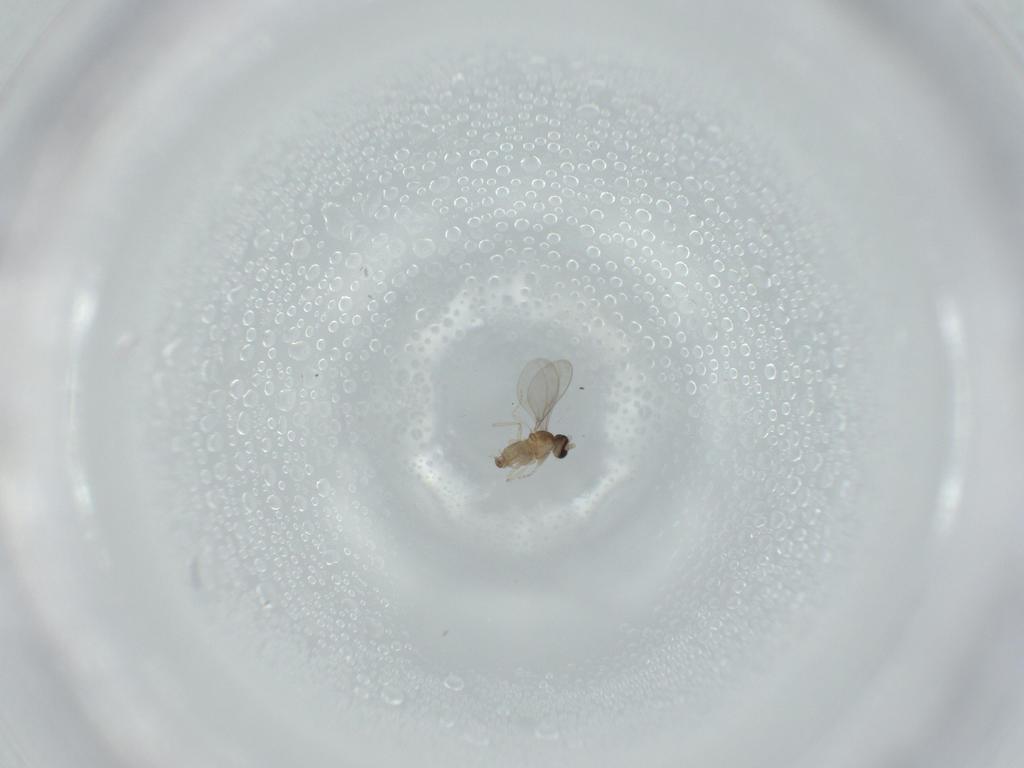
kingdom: Animalia
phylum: Arthropoda
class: Insecta
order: Diptera
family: Cecidomyiidae
